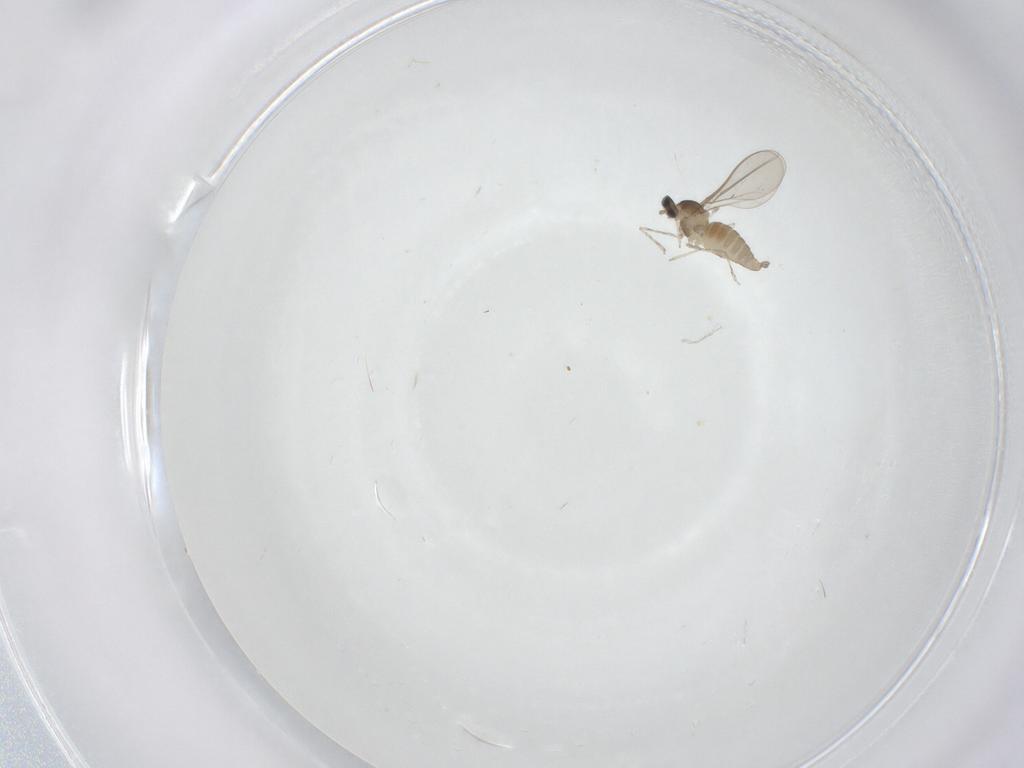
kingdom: Animalia
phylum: Arthropoda
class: Insecta
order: Diptera
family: Cecidomyiidae
